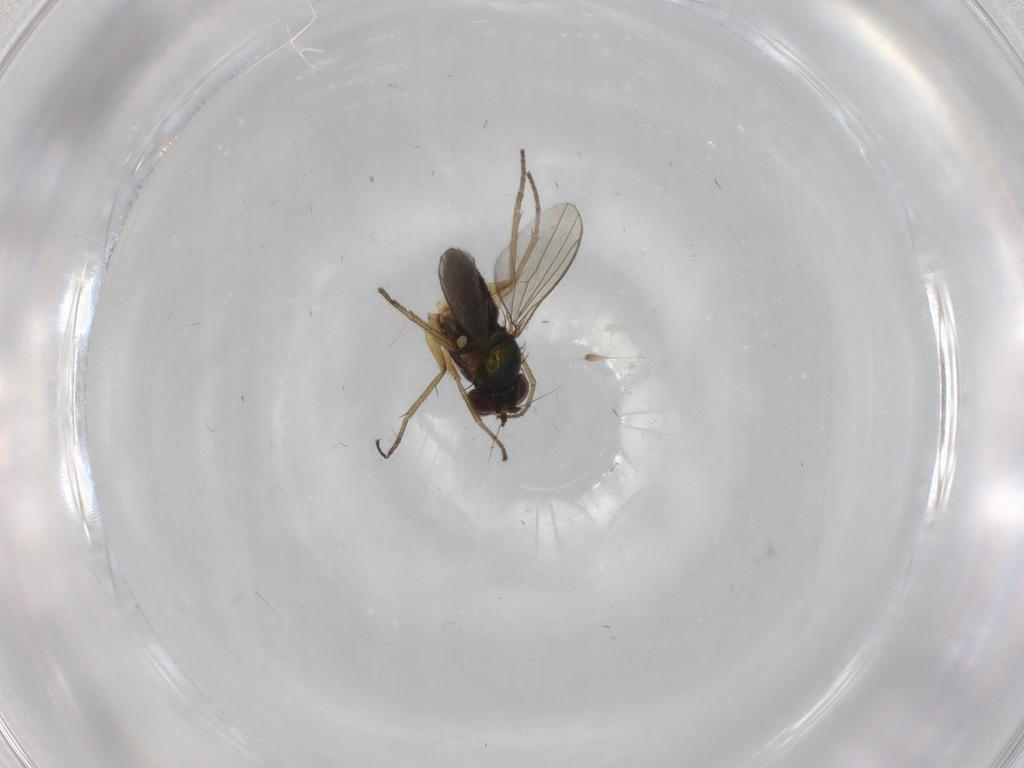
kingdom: Animalia
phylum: Arthropoda
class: Insecta
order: Diptera
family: Dolichopodidae
